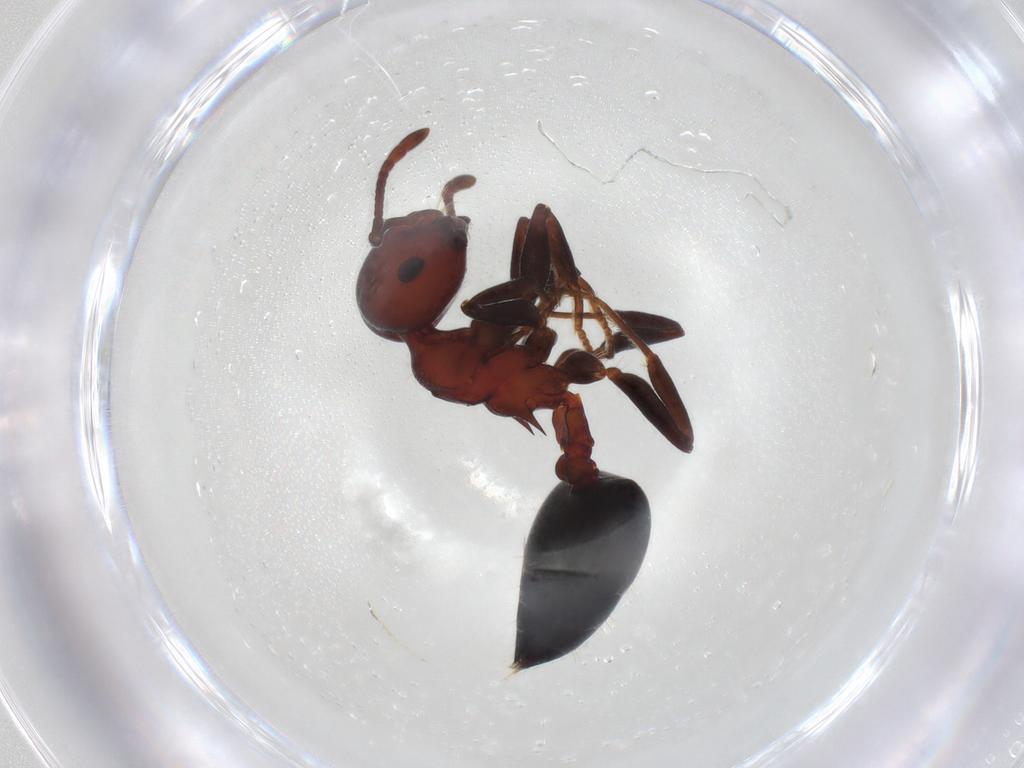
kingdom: Animalia
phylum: Arthropoda
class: Insecta
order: Hymenoptera
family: Formicidae
